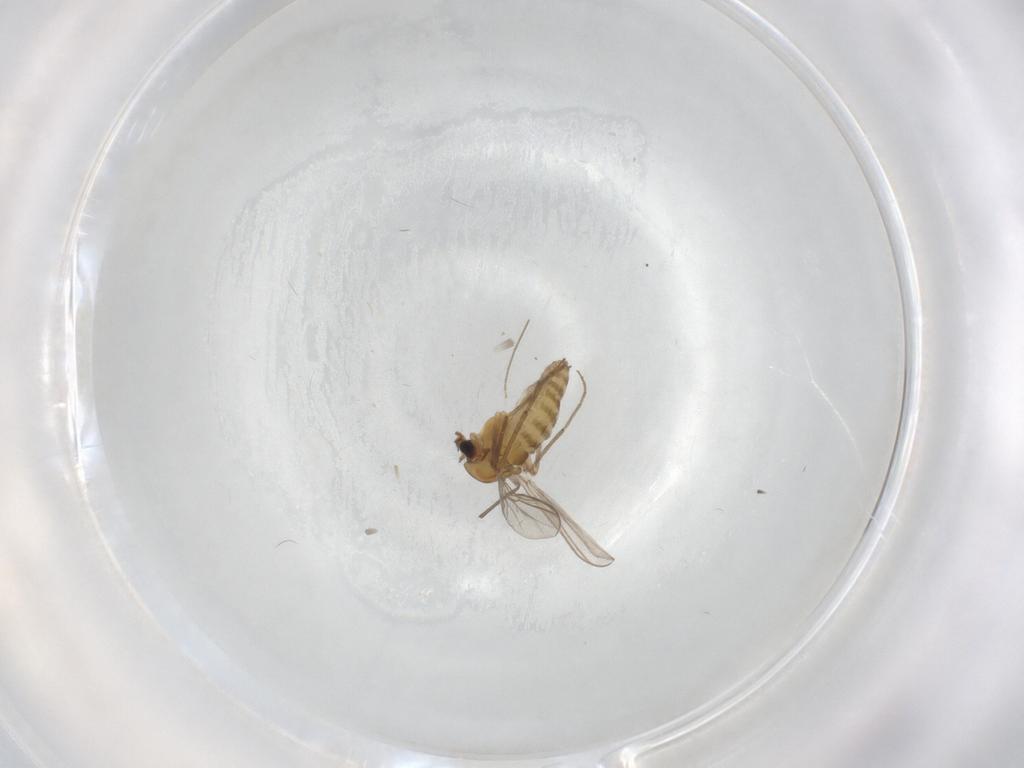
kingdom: Animalia
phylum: Arthropoda
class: Insecta
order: Diptera
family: Chironomidae
